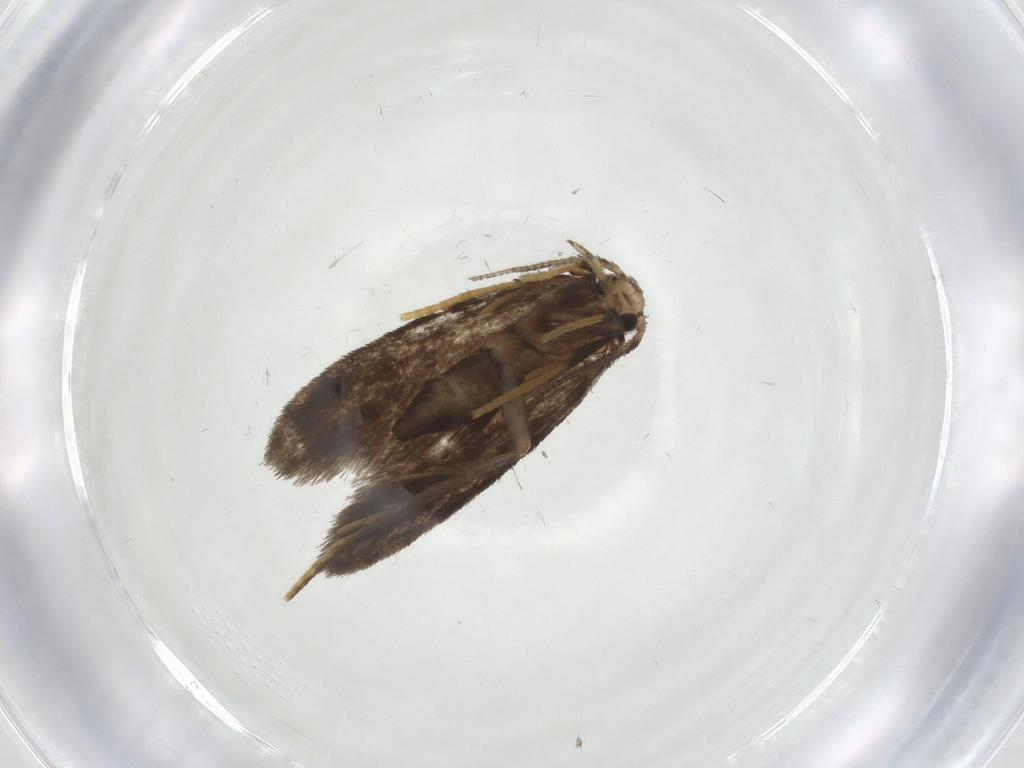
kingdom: Animalia
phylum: Arthropoda
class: Insecta
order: Lepidoptera
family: Psychidae
